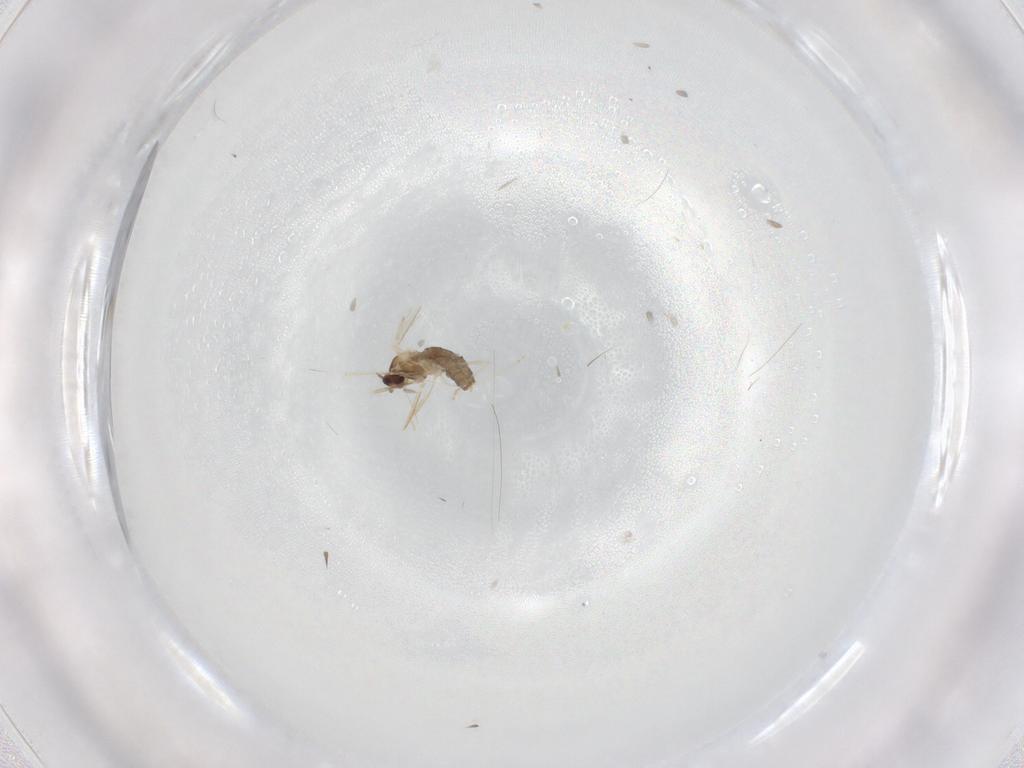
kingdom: Animalia
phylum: Arthropoda
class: Insecta
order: Diptera
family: Cecidomyiidae
